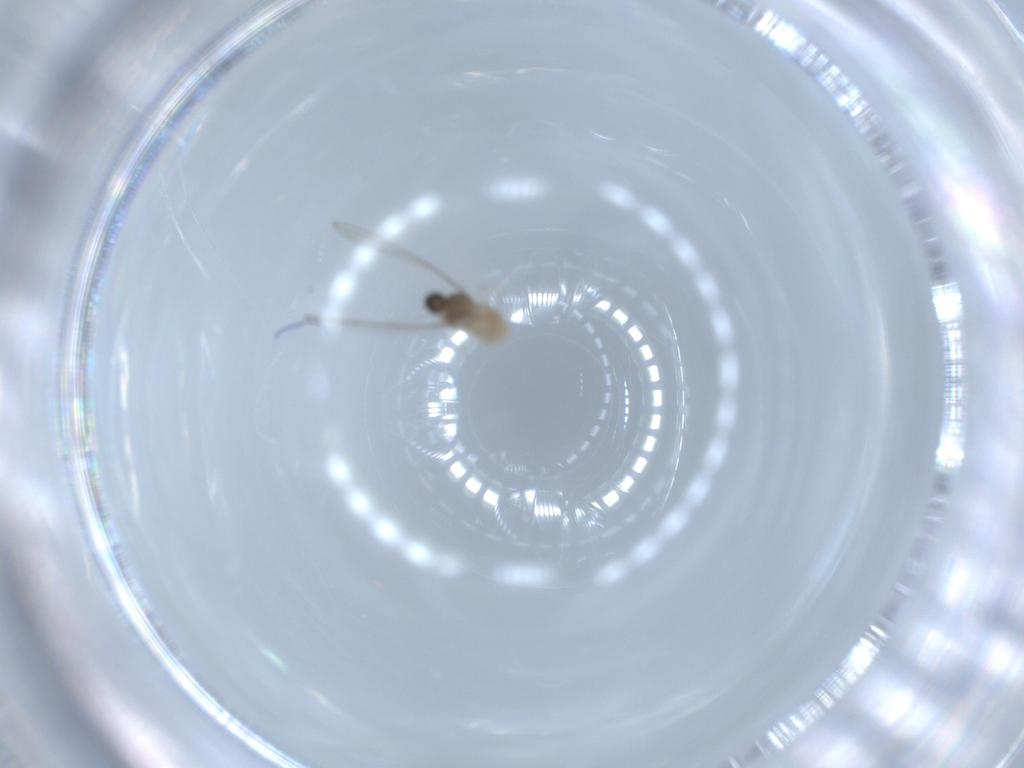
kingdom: Animalia
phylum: Arthropoda
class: Insecta
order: Diptera
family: Cecidomyiidae
